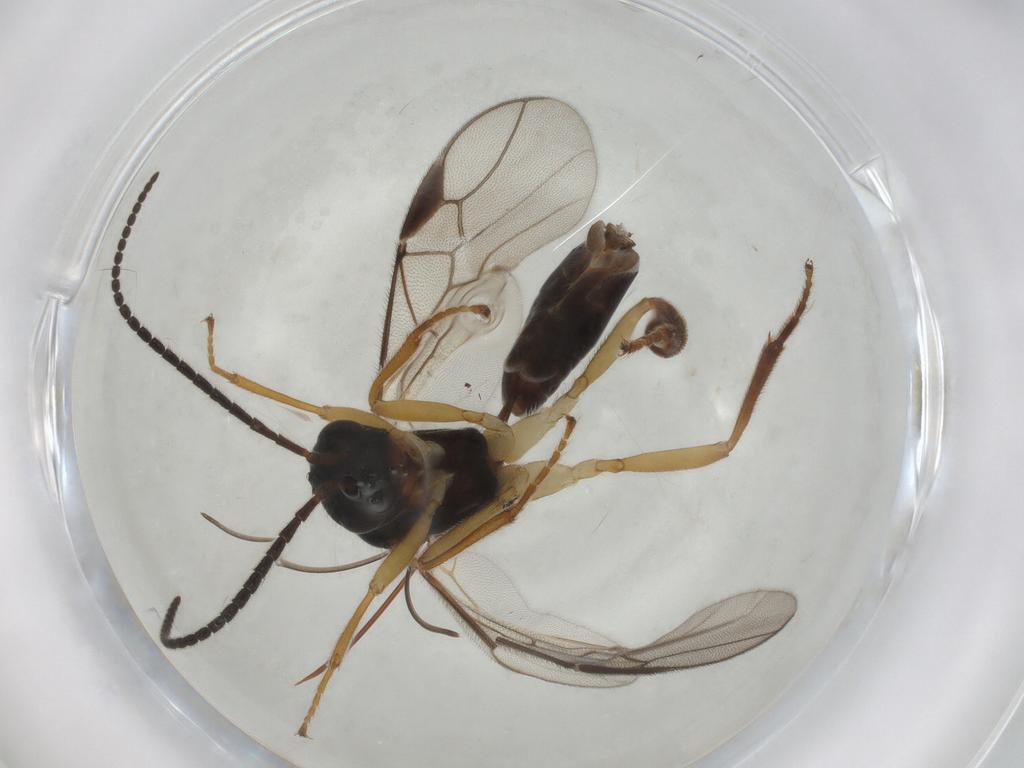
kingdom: Animalia
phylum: Arthropoda
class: Insecta
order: Hymenoptera
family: Braconidae
